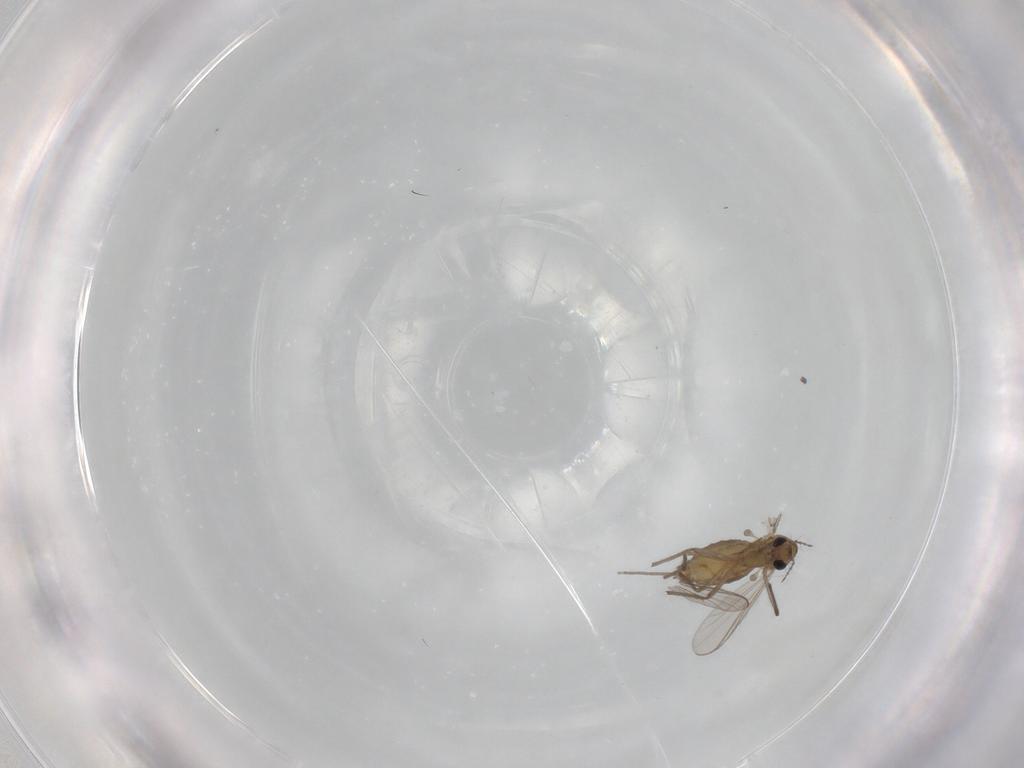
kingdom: Animalia
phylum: Arthropoda
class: Insecta
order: Diptera
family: Chironomidae
